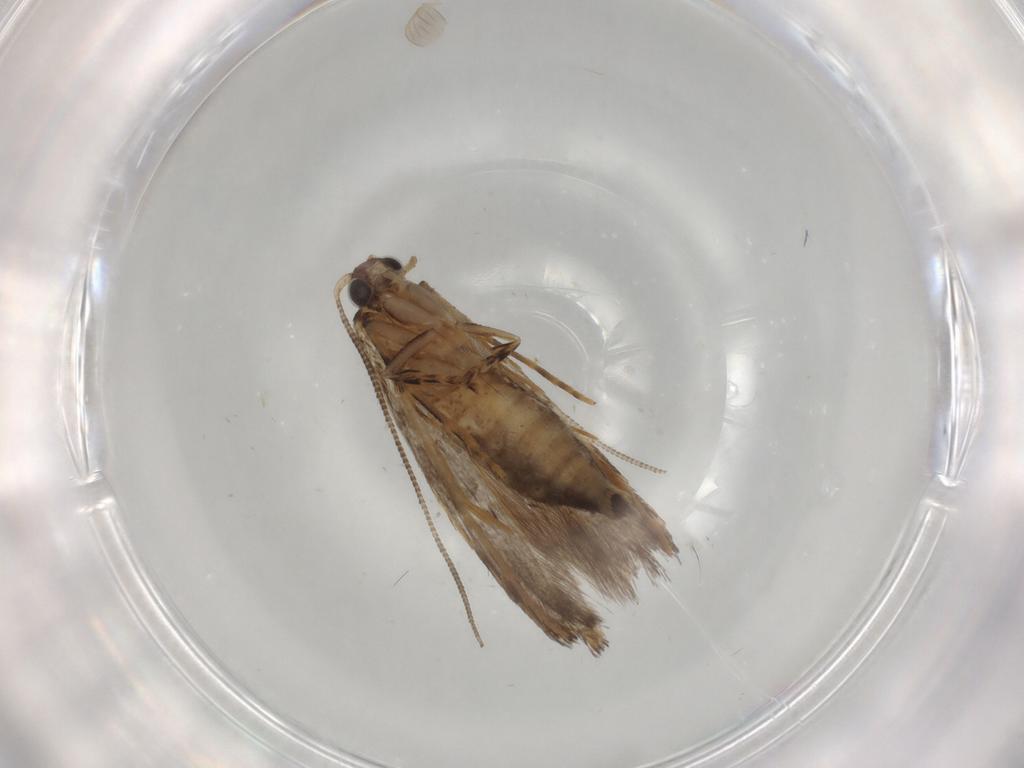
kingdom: Animalia
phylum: Arthropoda
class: Insecta
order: Lepidoptera
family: Tineidae
